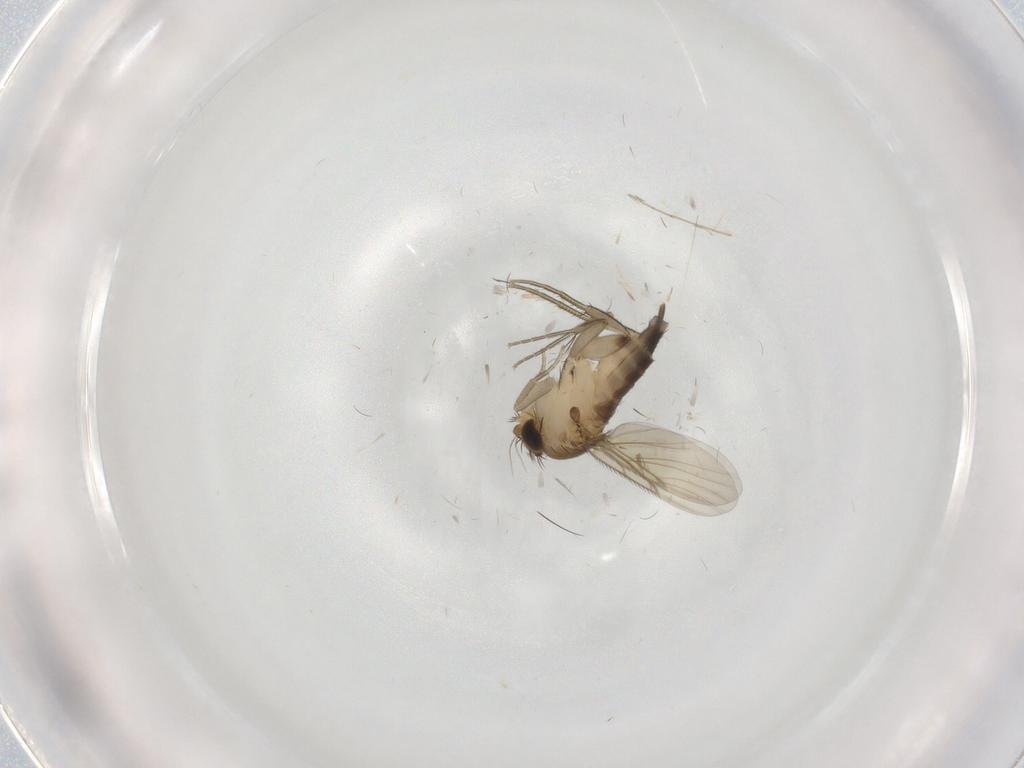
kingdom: Animalia
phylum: Arthropoda
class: Insecta
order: Diptera
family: Phoridae
